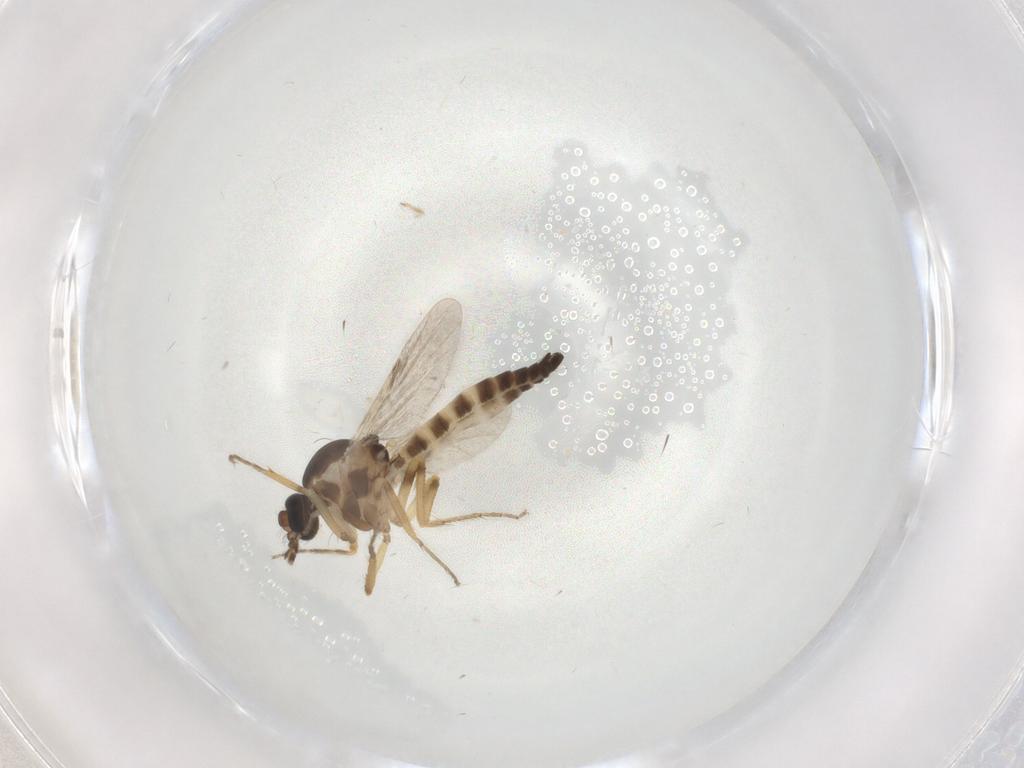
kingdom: Animalia
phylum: Arthropoda
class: Insecta
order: Diptera
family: Ceratopogonidae
